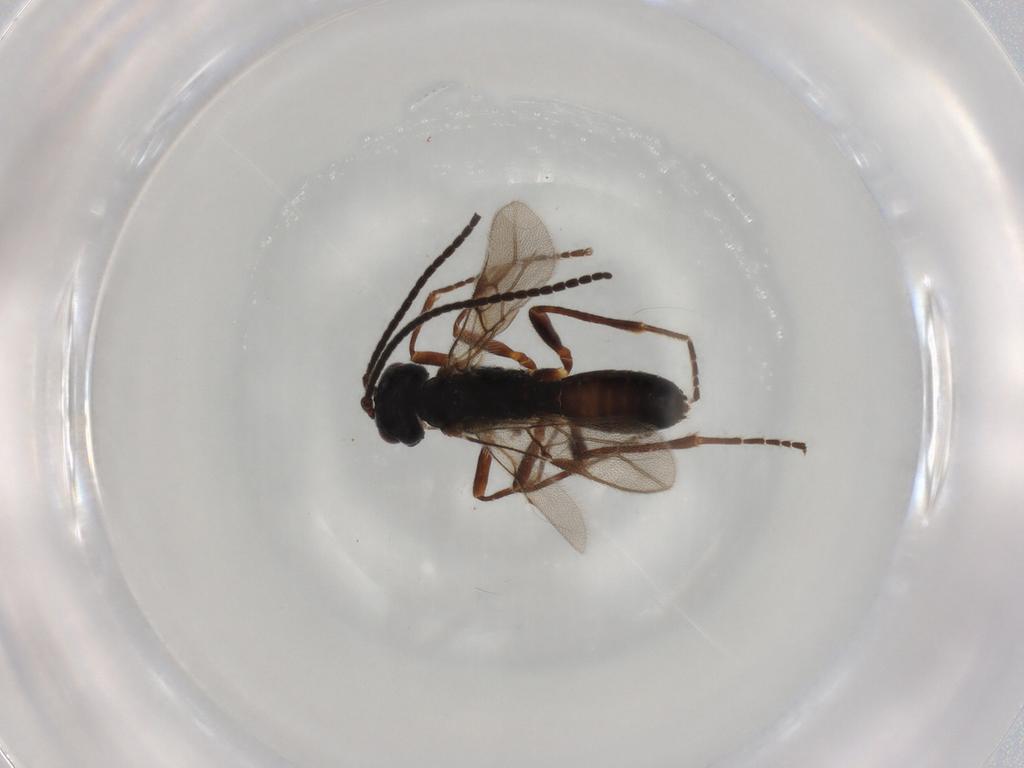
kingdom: Animalia
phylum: Arthropoda
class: Insecta
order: Hymenoptera
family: Braconidae
